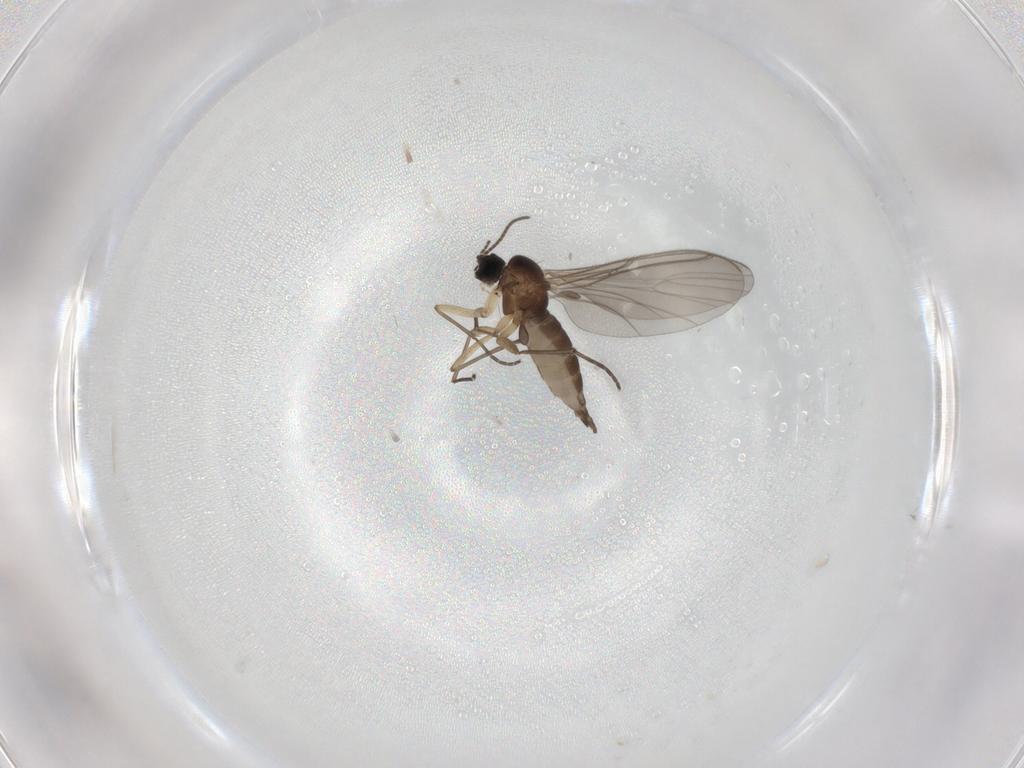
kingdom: Animalia
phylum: Arthropoda
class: Insecta
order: Diptera
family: Sciaridae
